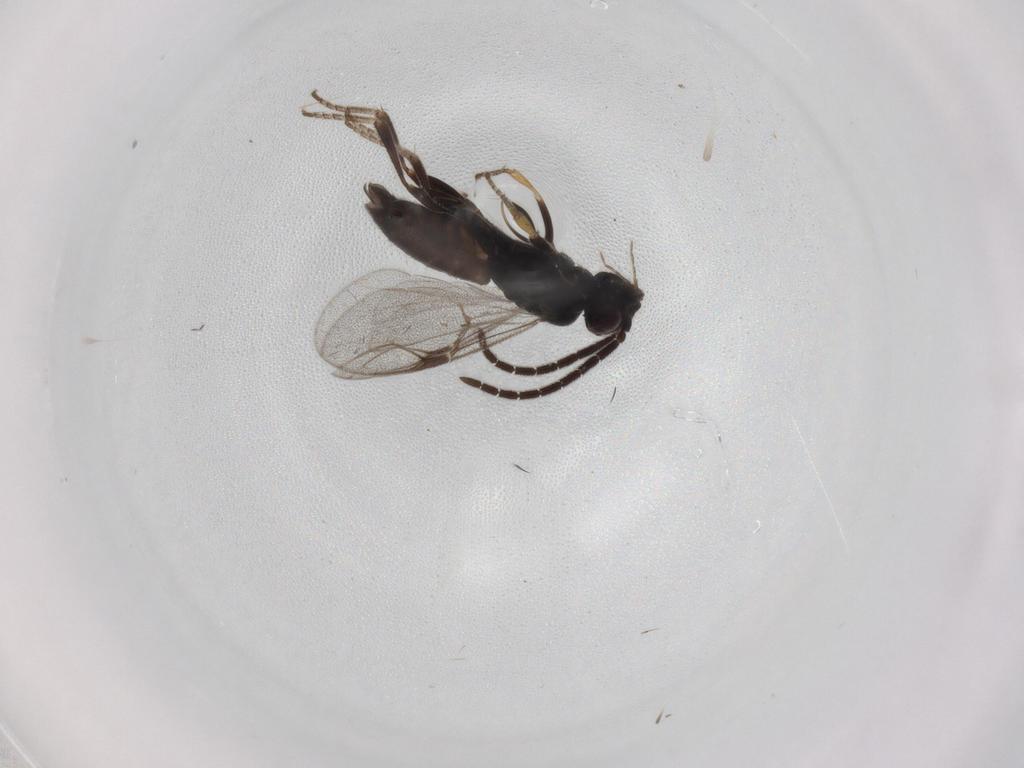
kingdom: Animalia
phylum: Arthropoda
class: Insecta
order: Hymenoptera
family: Dryinidae
